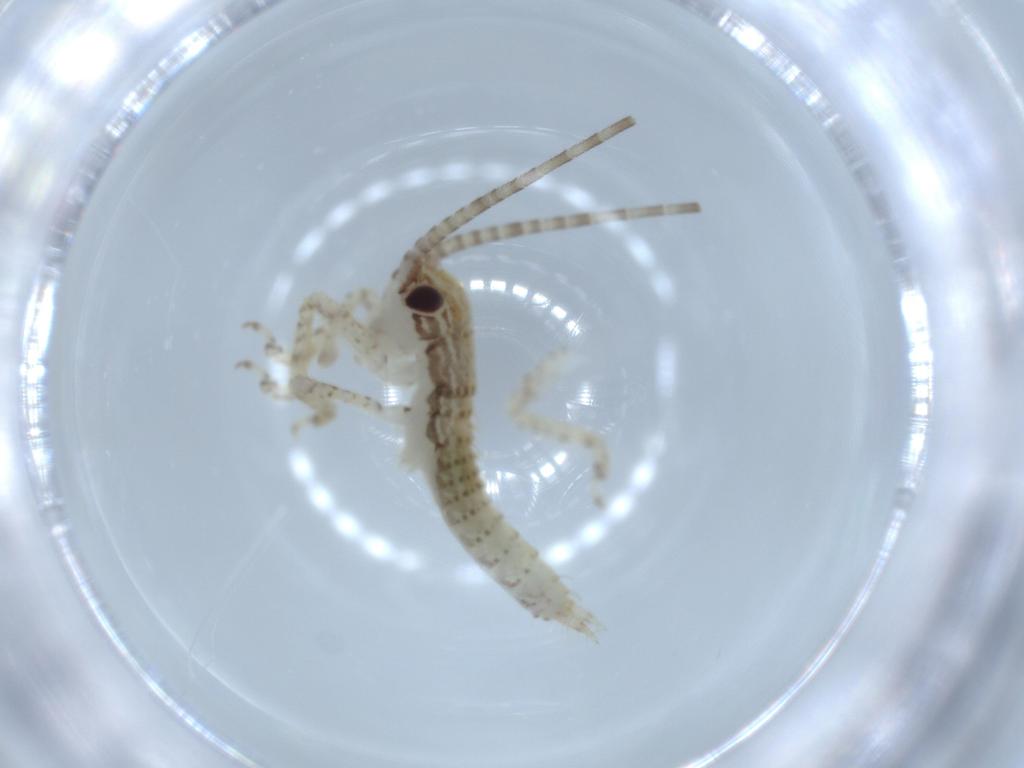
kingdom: Animalia
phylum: Arthropoda
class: Insecta
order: Orthoptera
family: Gryllidae
